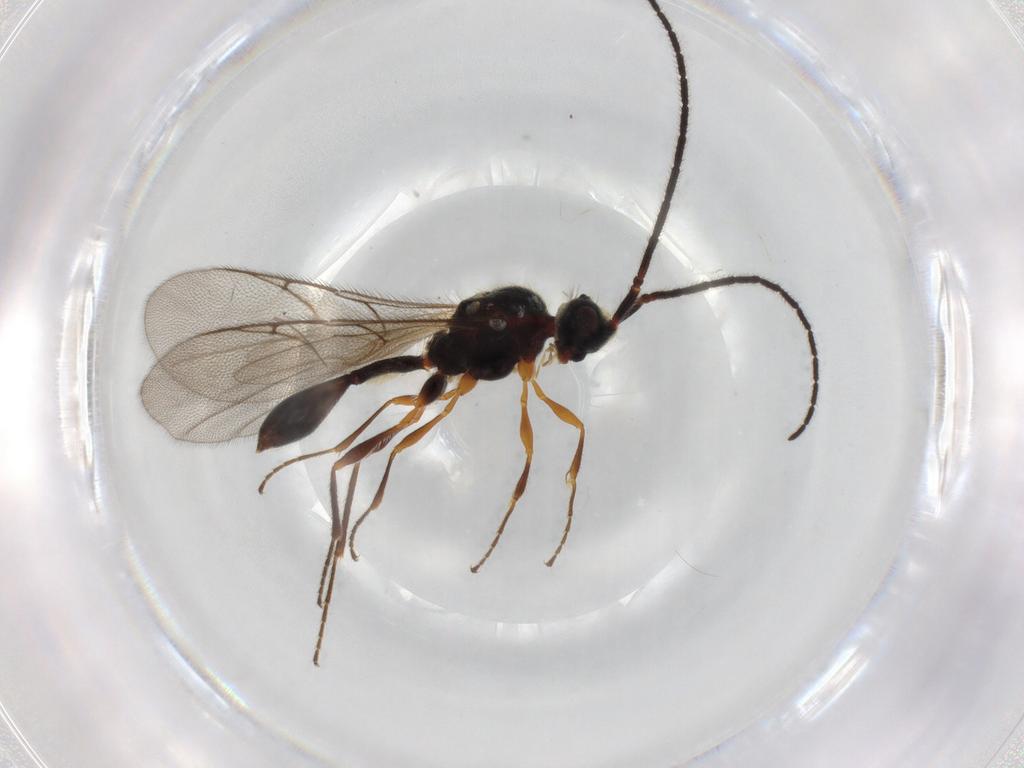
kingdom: Animalia
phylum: Arthropoda
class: Insecta
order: Hymenoptera
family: Diapriidae
